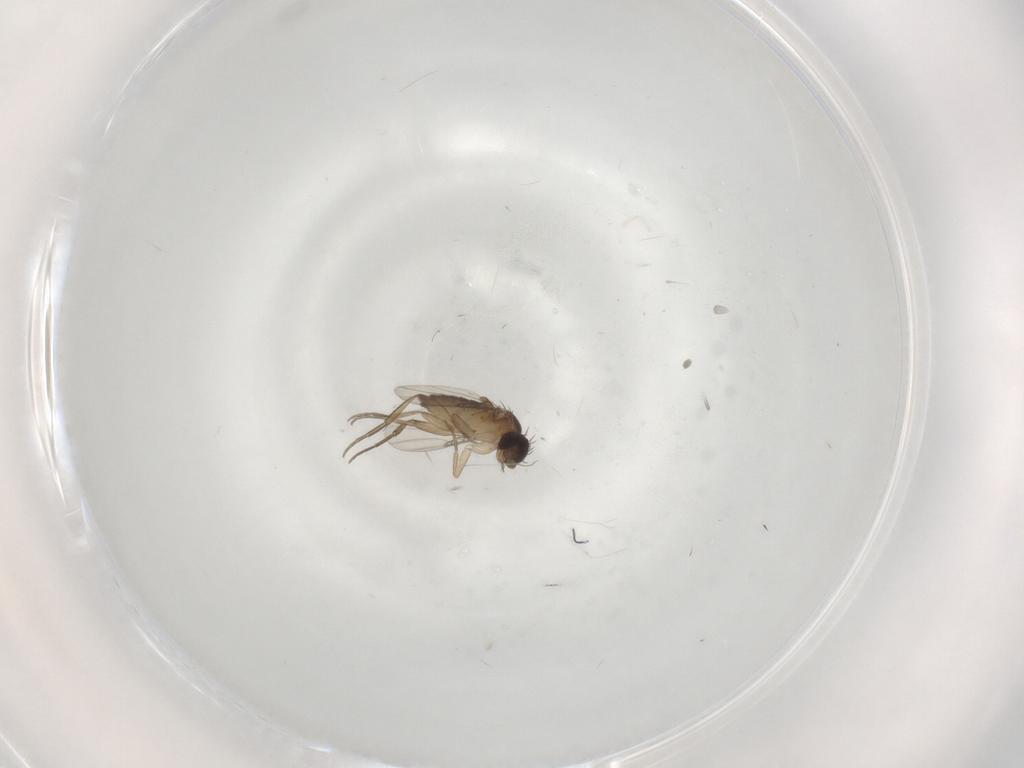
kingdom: Animalia
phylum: Arthropoda
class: Insecta
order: Diptera
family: Phoridae
